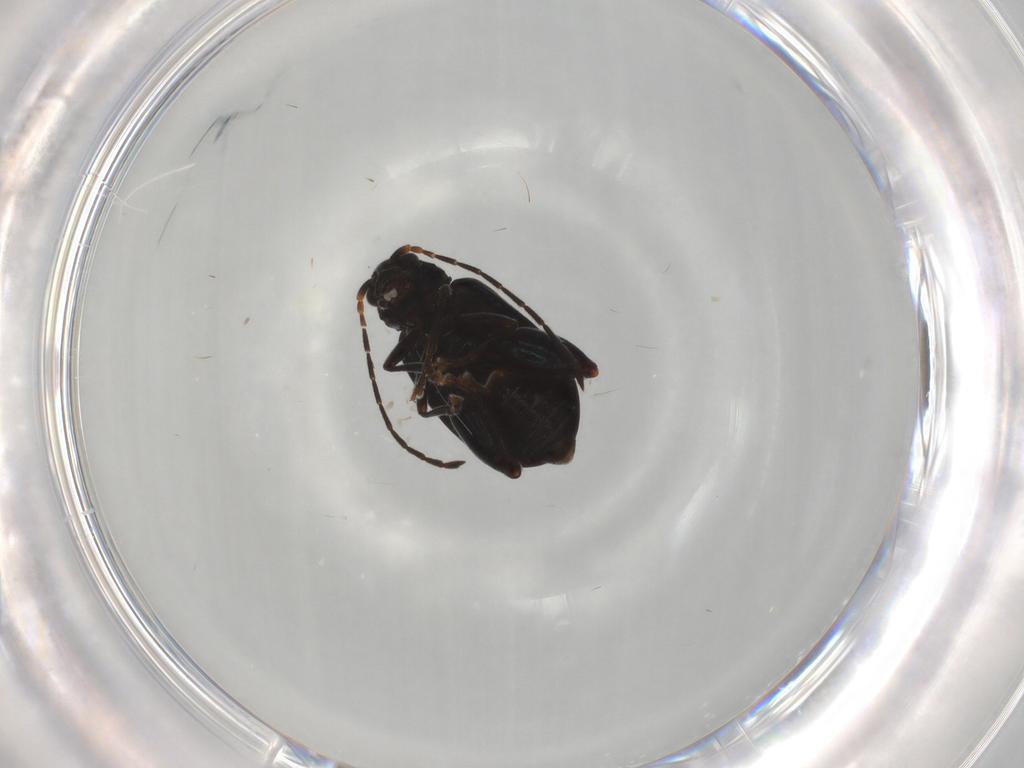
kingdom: Animalia
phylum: Arthropoda
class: Insecta
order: Coleoptera
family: Chrysomelidae
